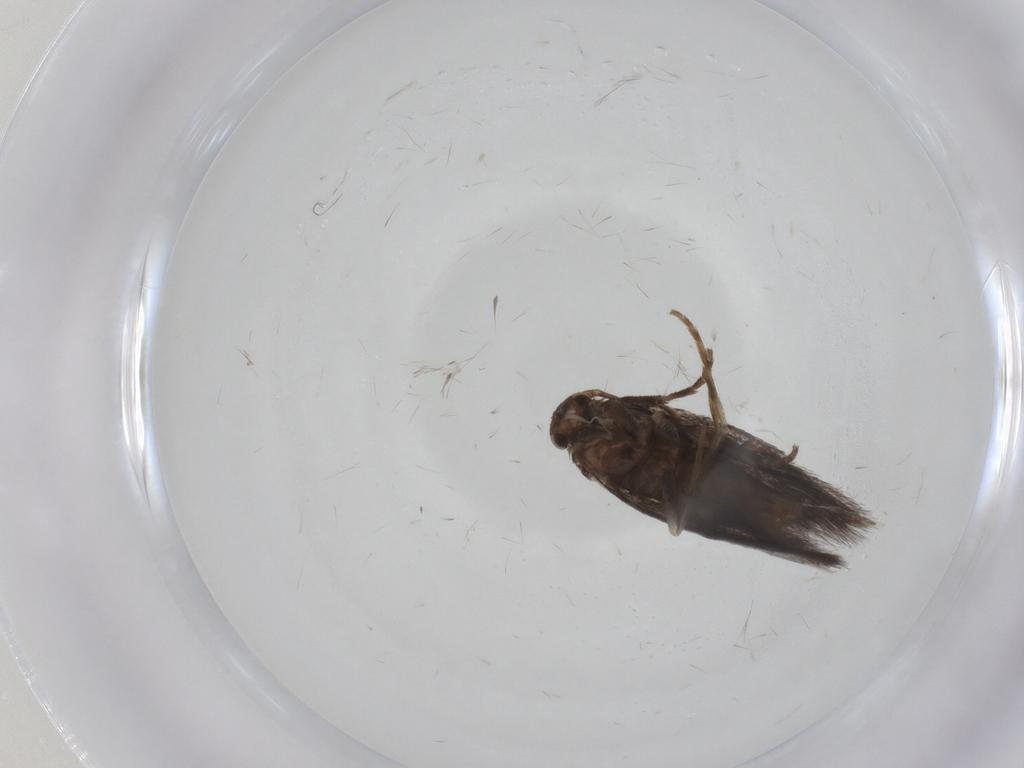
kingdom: Animalia
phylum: Arthropoda
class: Insecta
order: Lepidoptera
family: Elachistidae
